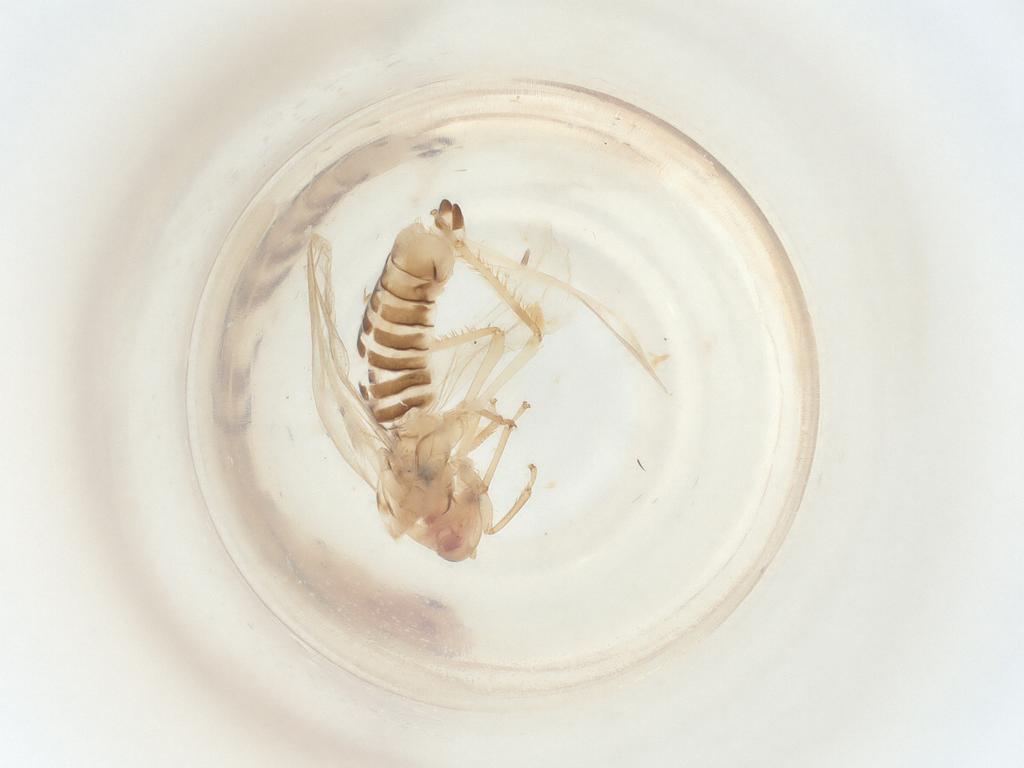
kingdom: Animalia
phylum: Arthropoda
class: Insecta
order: Hemiptera
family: Cicadellidae
